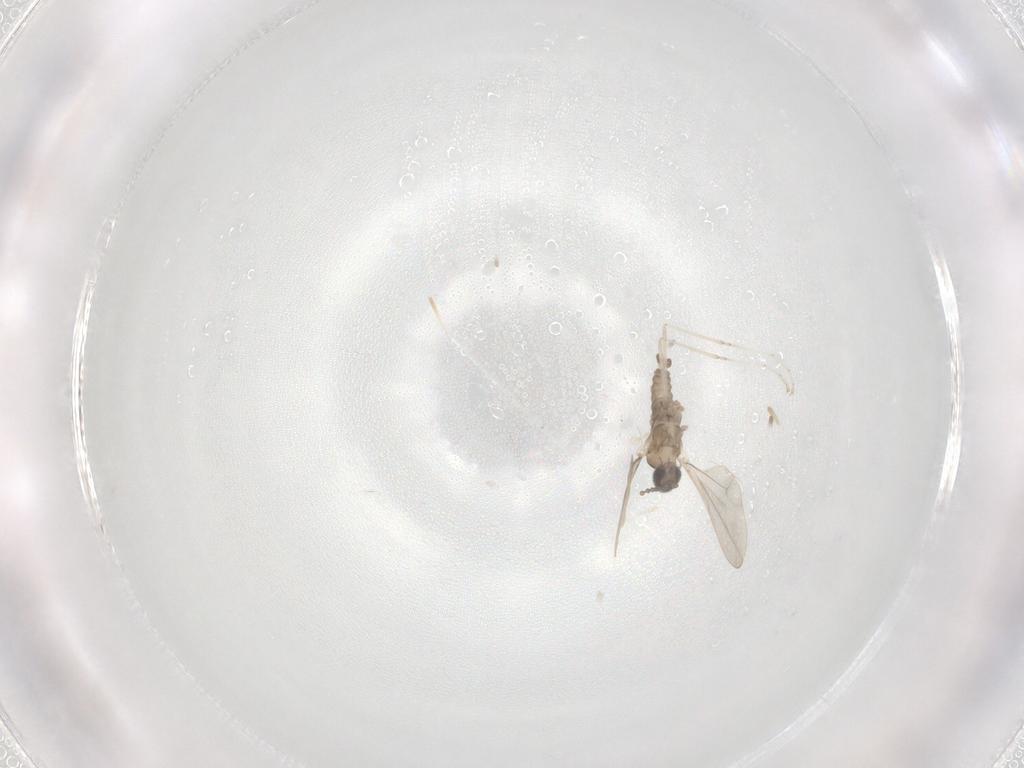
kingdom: Animalia
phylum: Arthropoda
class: Insecta
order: Diptera
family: Cecidomyiidae
